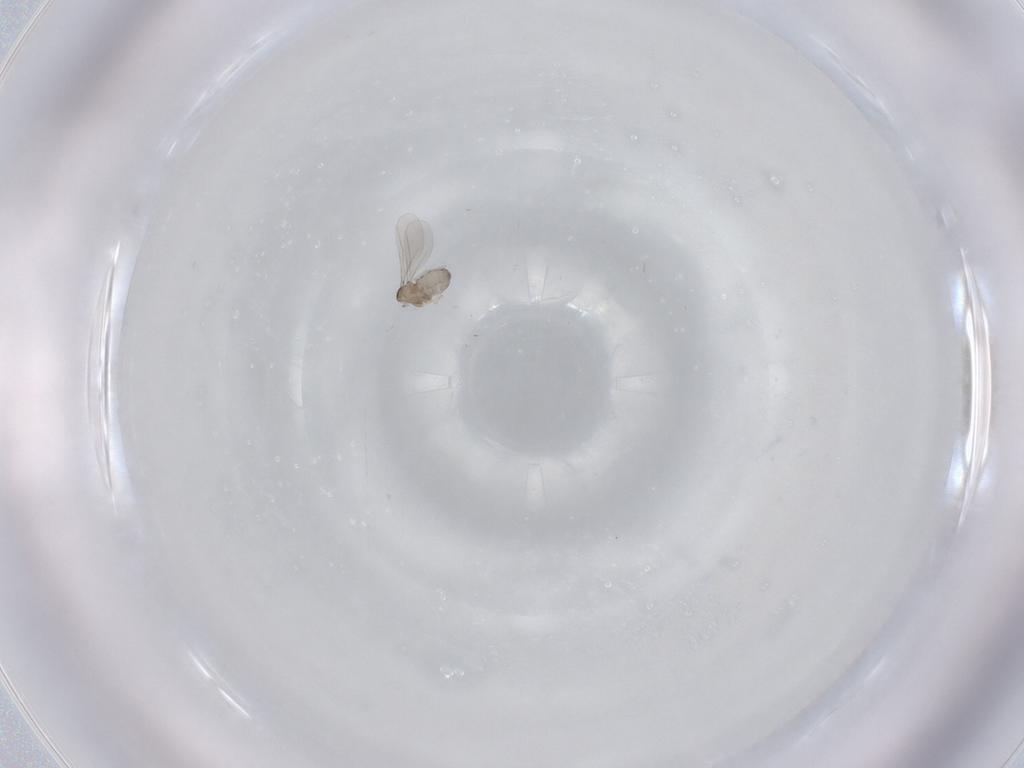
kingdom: Animalia
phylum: Arthropoda
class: Insecta
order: Diptera
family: Cecidomyiidae
